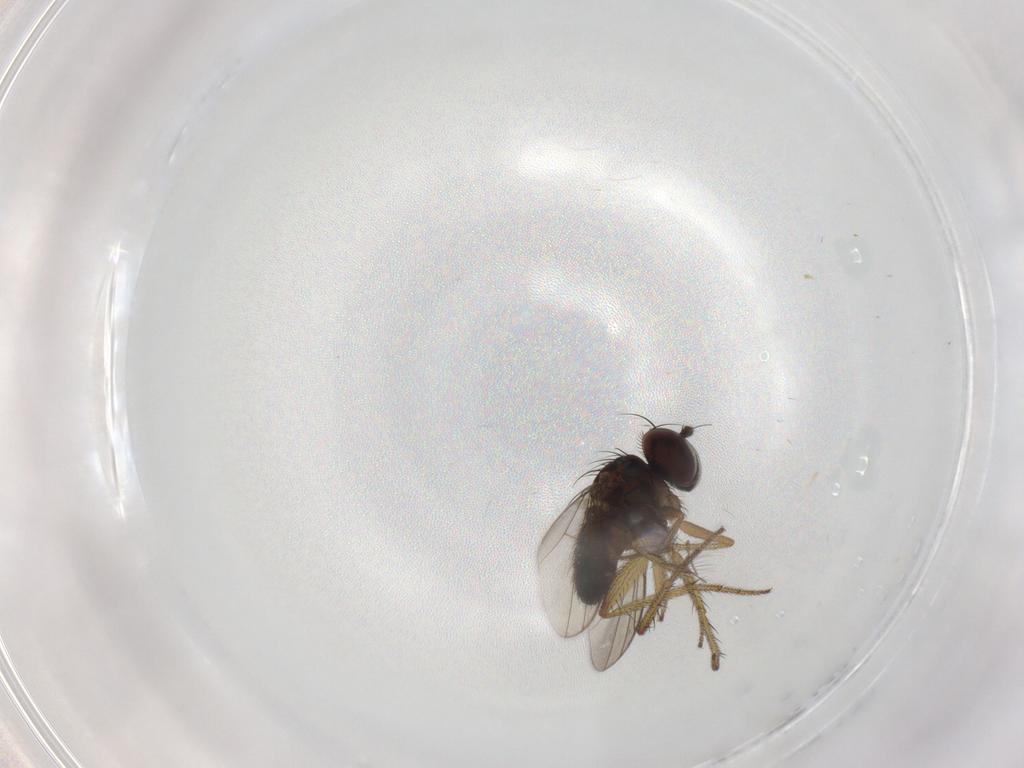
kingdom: Animalia
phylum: Arthropoda
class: Insecta
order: Diptera
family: Chironomidae
